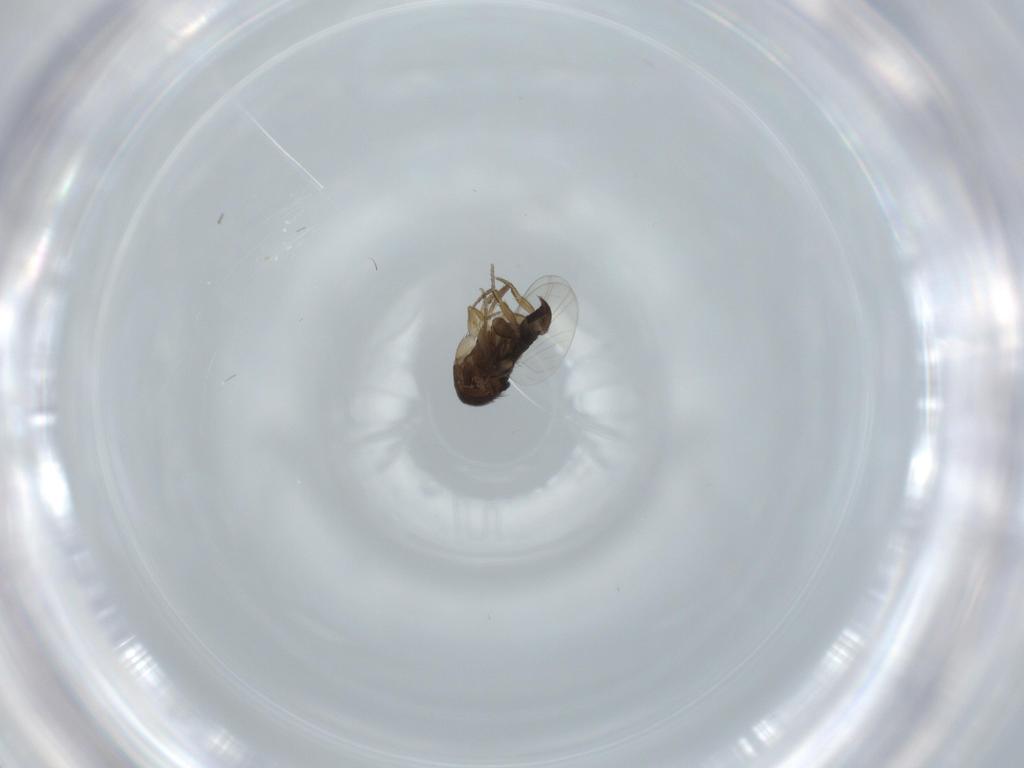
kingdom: Animalia
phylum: Arthropoda
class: Insecta
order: Diptera
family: Phoridae
